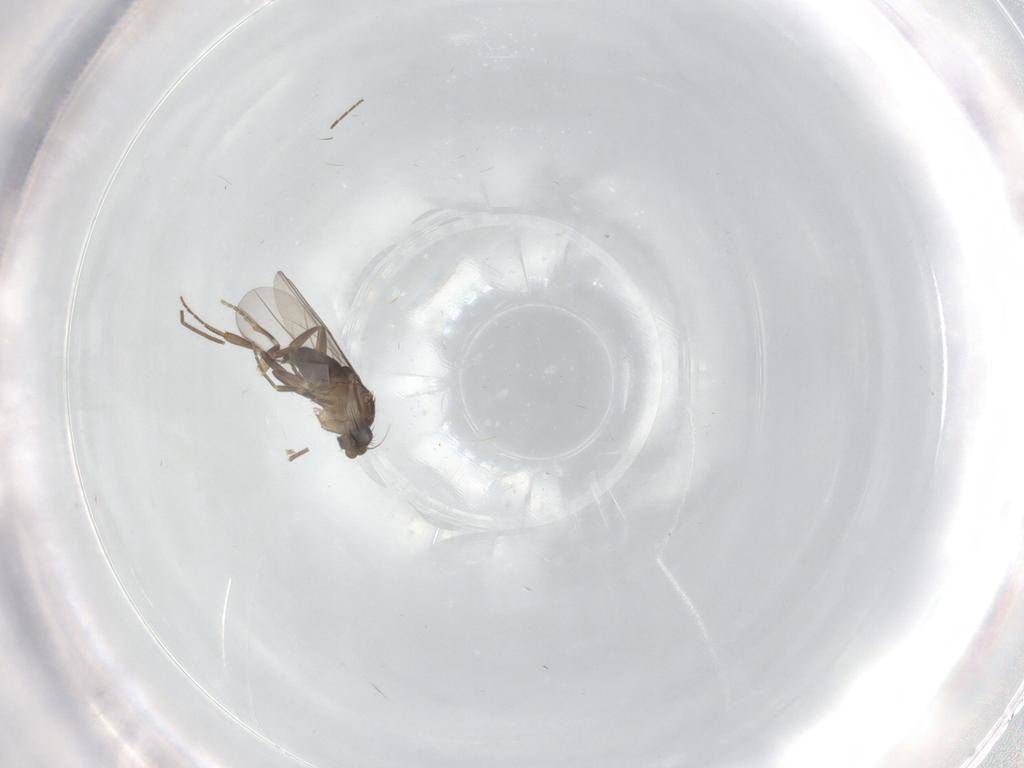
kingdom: Animalia
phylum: Arthropoda
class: Insecta
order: Diptera
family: Phoridae
